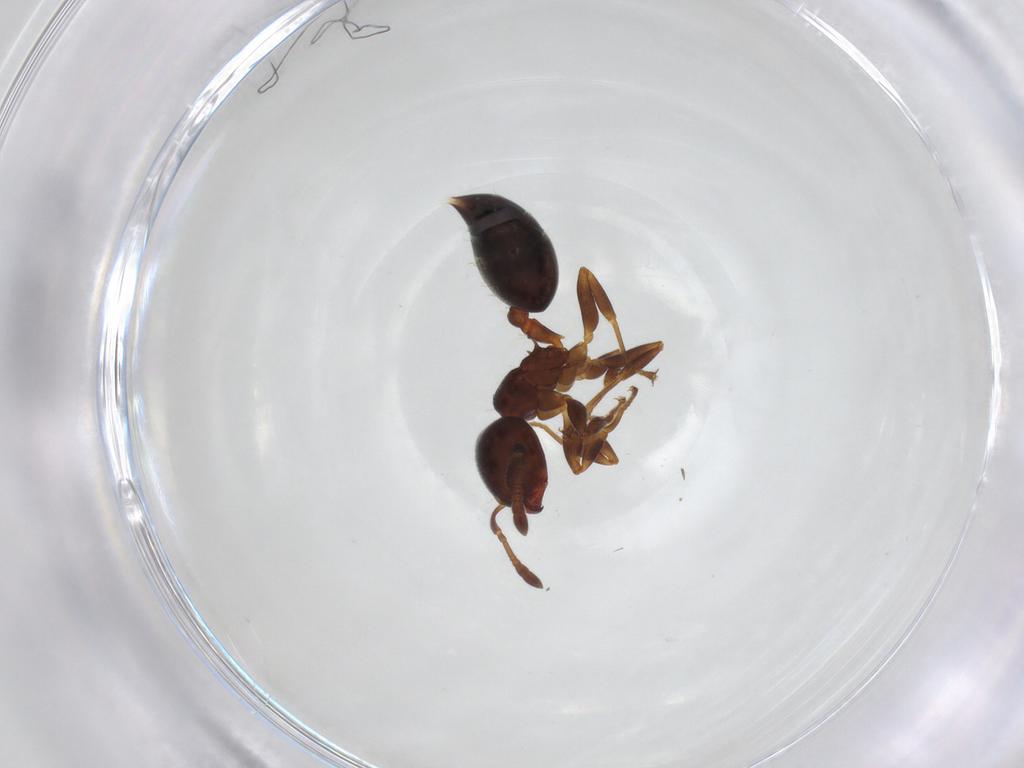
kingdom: Animalia
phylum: Arthropoda
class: Insecta
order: Hymenoptera
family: Formicidae
